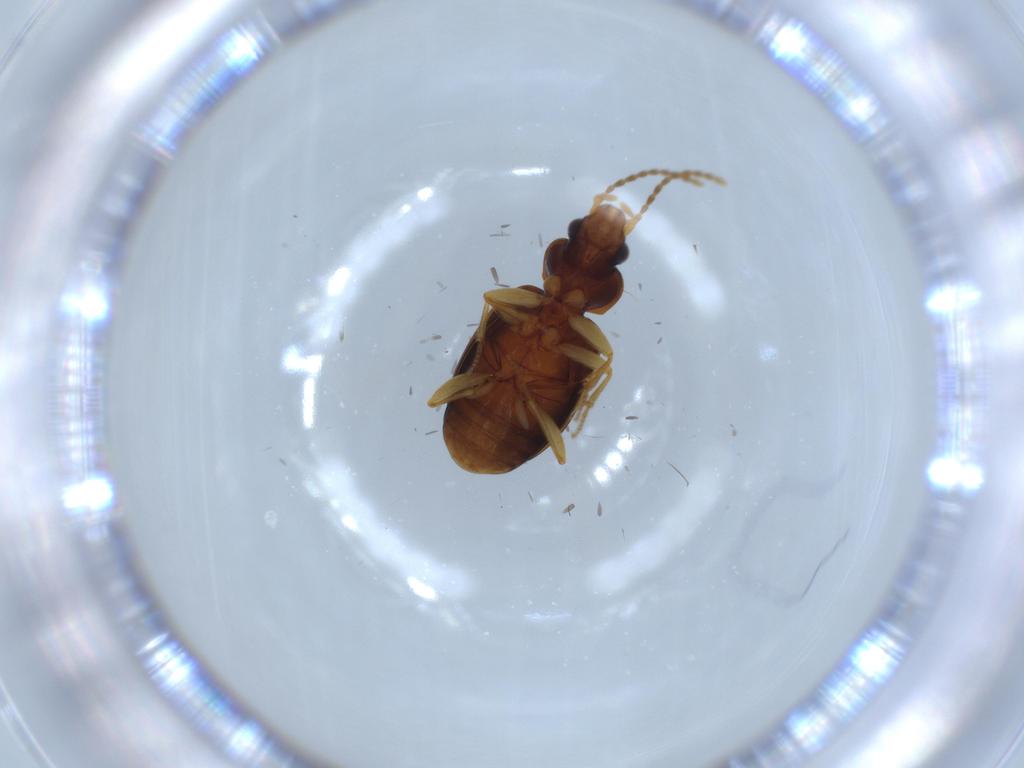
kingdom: Animalia
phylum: Arthropoda
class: Insecta
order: Coleoptera
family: Carabidae
